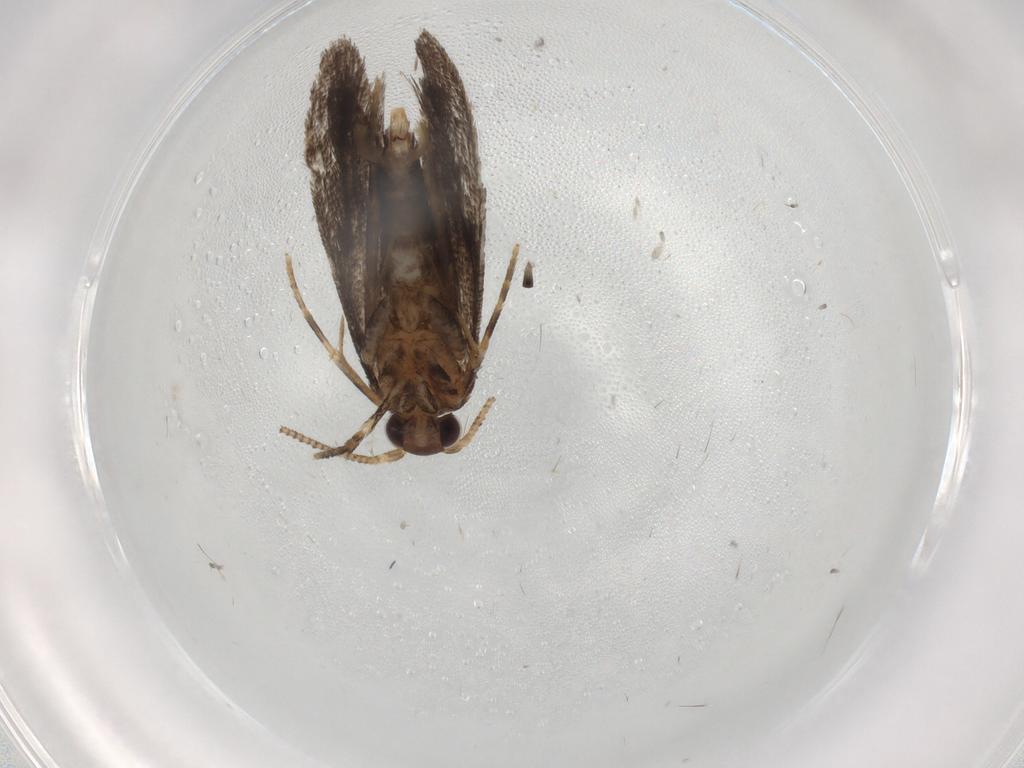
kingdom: Animalia
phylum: Arthropoda
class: Insecta
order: Lepidoptera
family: Tineidae
